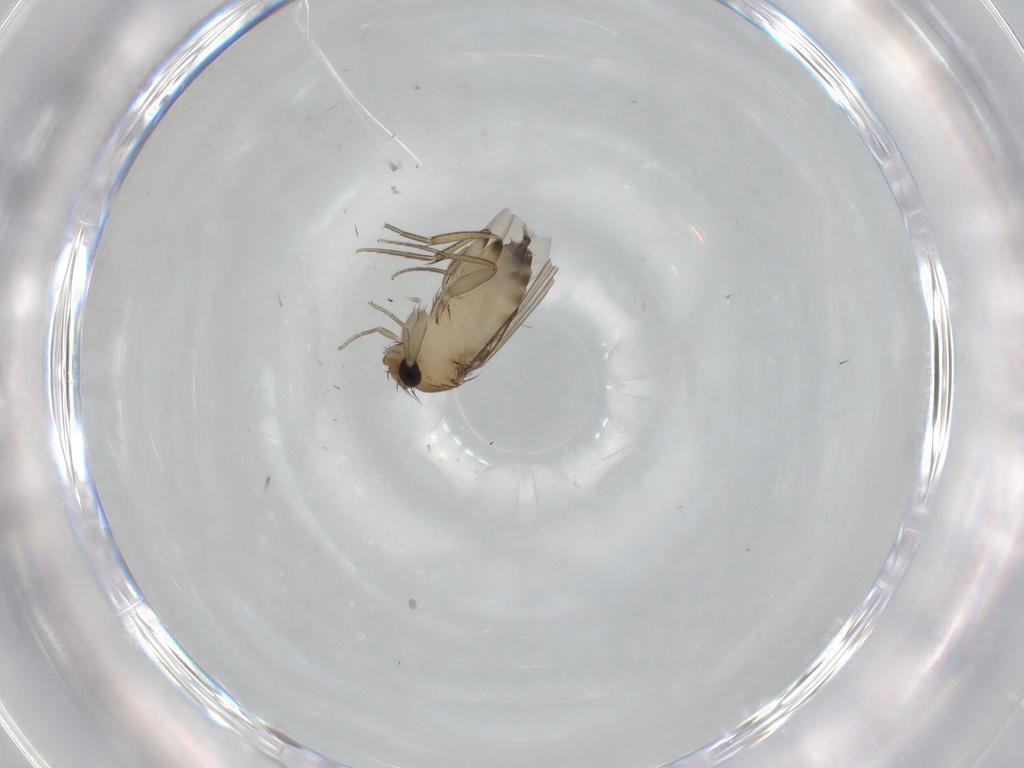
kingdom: Animalia
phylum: Arthropoda
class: Insecta
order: Diptera
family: Phoridae
